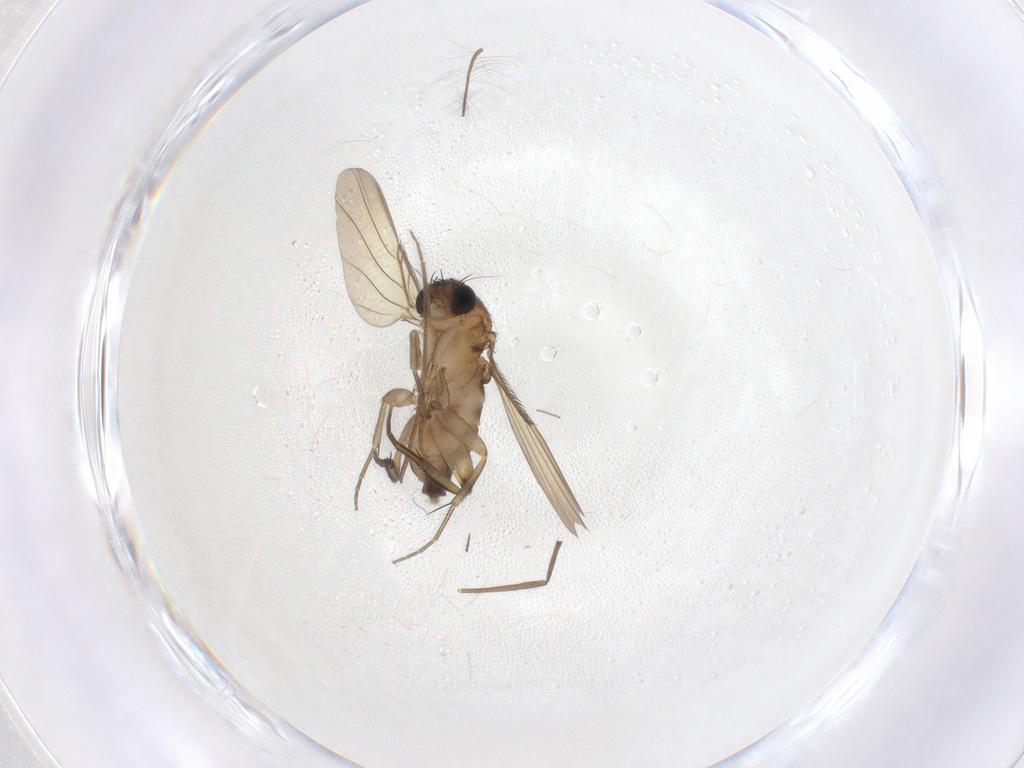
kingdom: Animalia
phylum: Arthropoda
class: Insecta
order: Diptera
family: Phoridae
